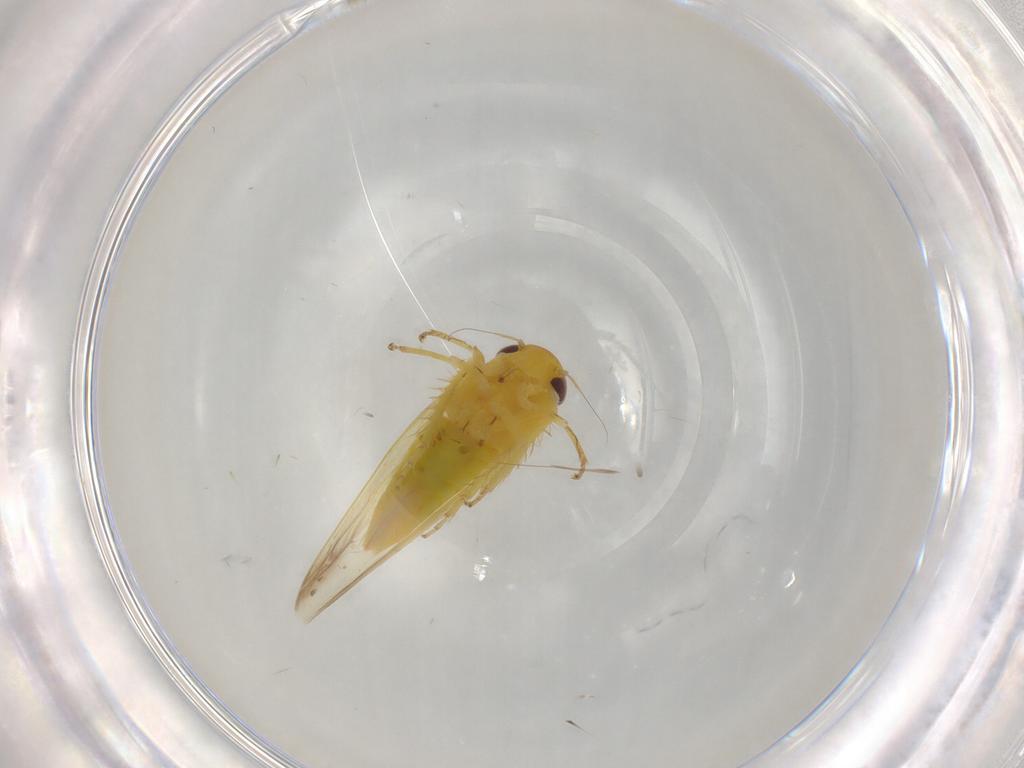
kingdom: Animalia
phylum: Arthropoda
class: Insecta
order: Hemiptera
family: Cicadellidae
